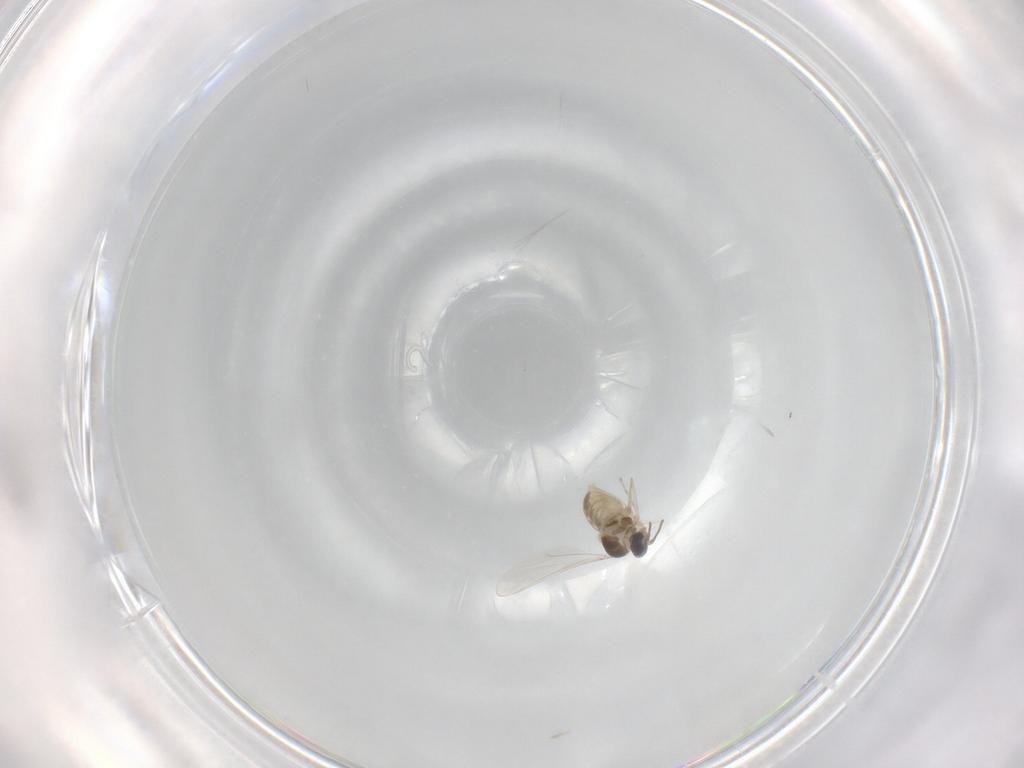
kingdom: Animalia
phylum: Arthropoda
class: Insecta
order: Diptera
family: Cecidomyiidae
